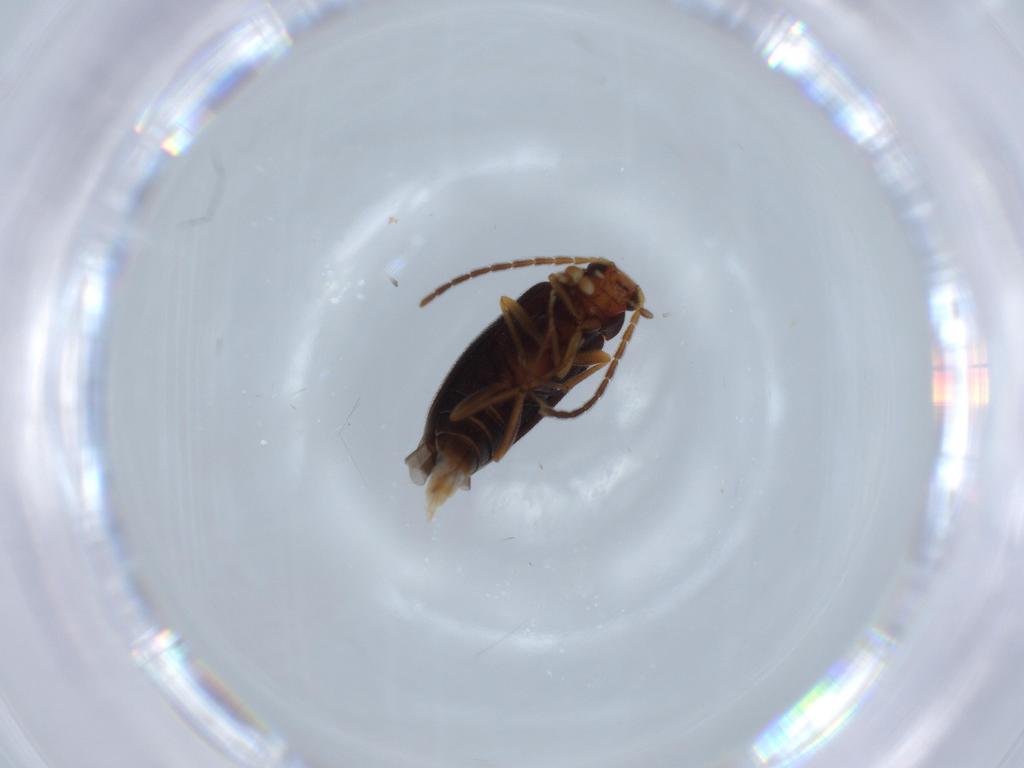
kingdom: Animalia
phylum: Arthropoda
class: Insecta
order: Coleoptera
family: Melandryidae
